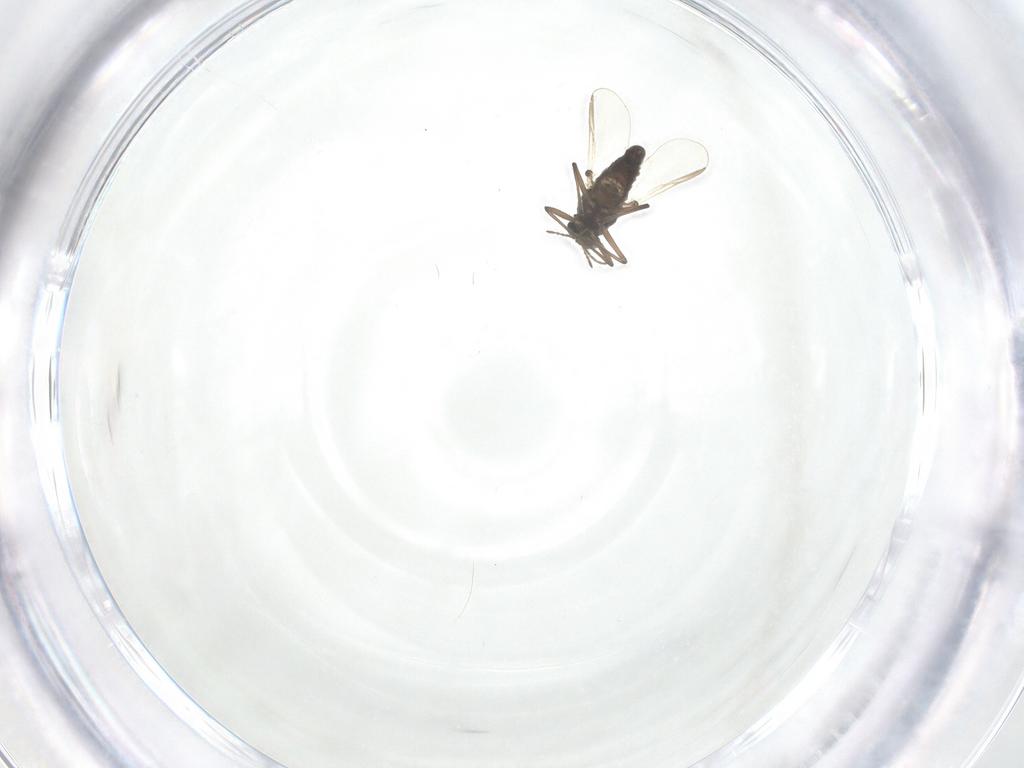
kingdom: Animalia
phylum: Arthropoda
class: Insecta
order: Diptera
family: Chironomidae
